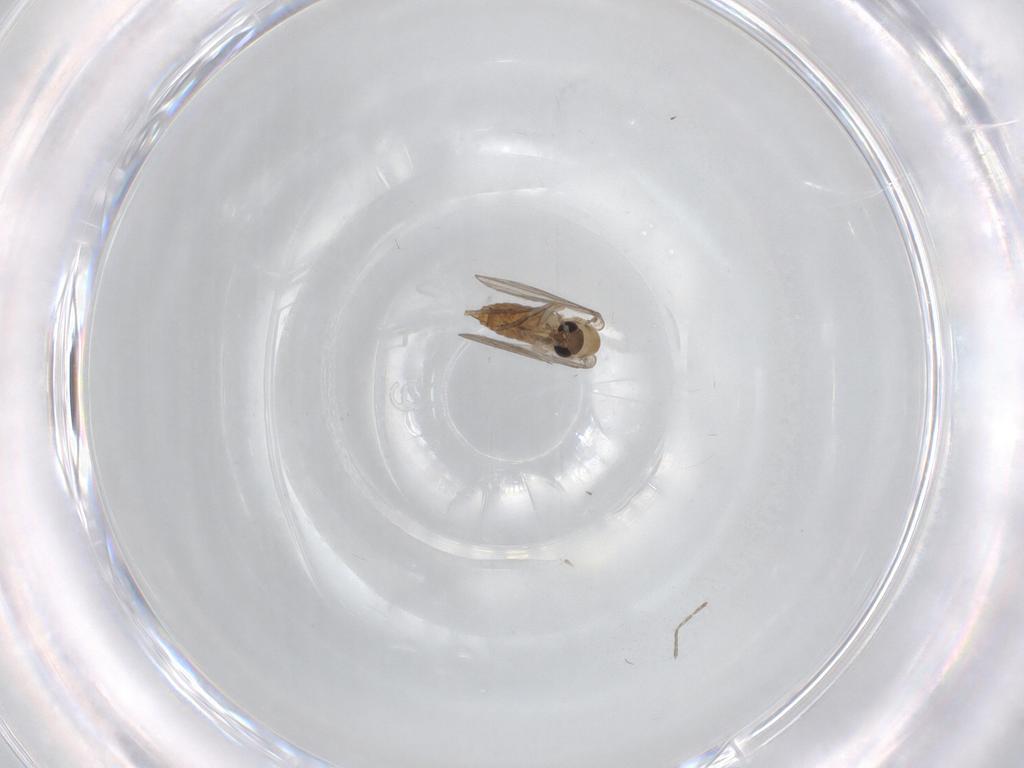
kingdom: Animalia
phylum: Arthropoda
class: Insecta
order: Diptera
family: Psychodidae
